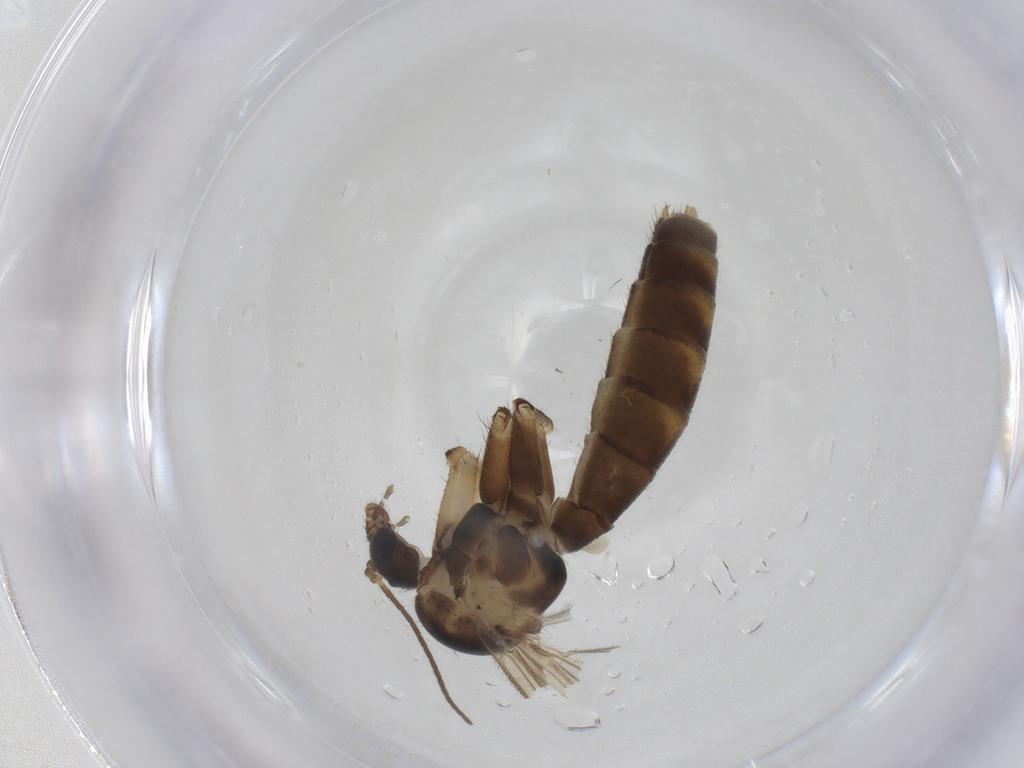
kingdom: Animalia
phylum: Arthropoda
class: Insecta
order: Diptera
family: Mycetophilidae
